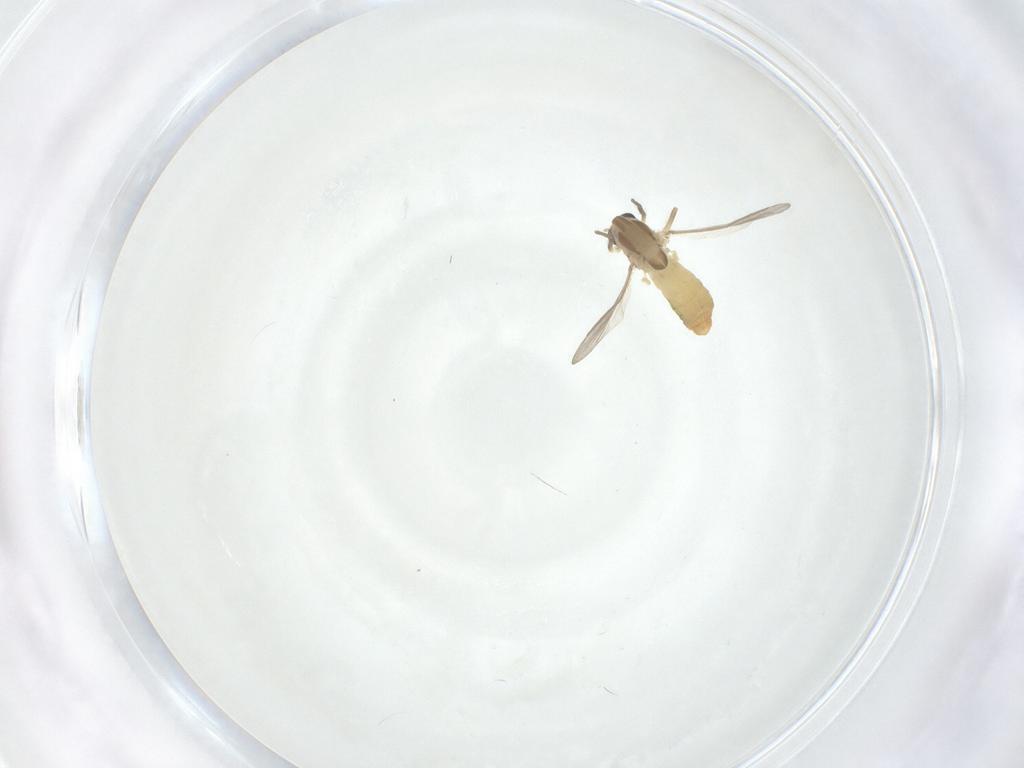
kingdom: Animalia
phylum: Arthropoda
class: Insecta
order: Diptera
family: Chironomidae
